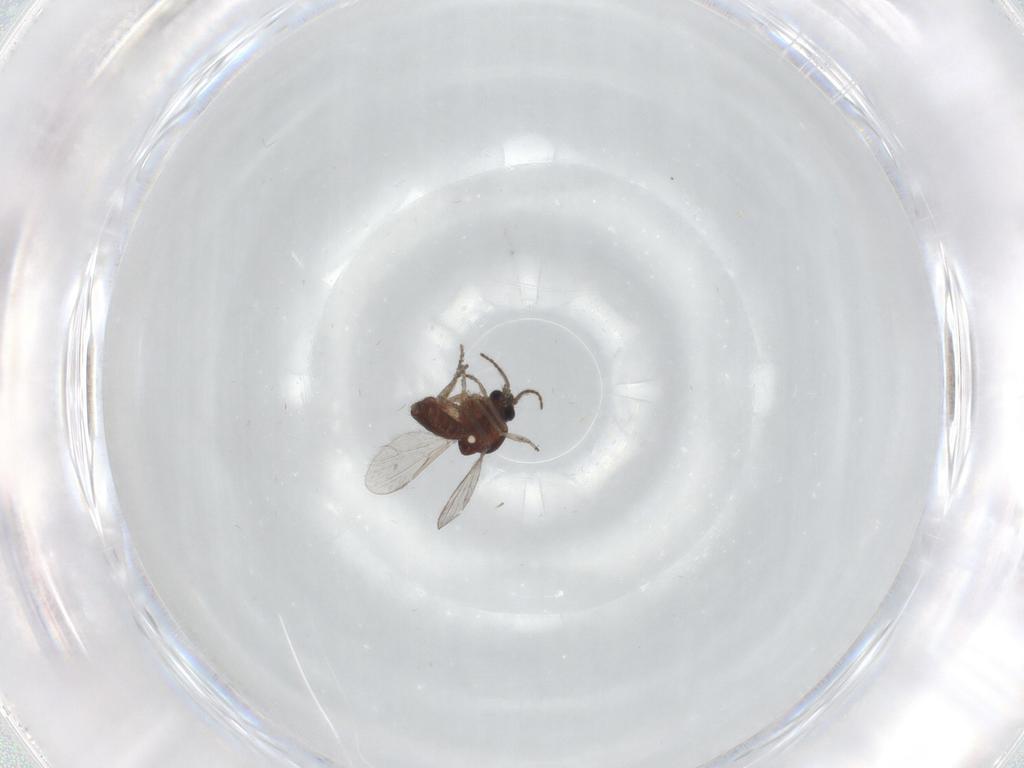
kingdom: Animalia
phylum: Arthropoda
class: Insecta
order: Diptera
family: Ceratopogonidae
